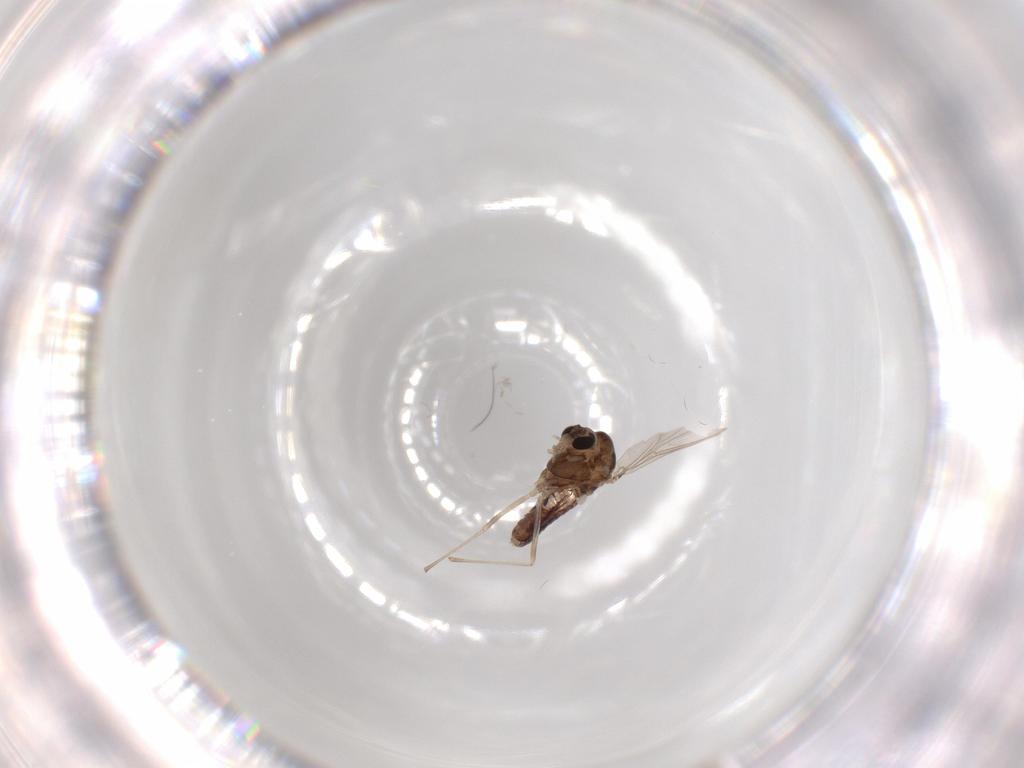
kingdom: Animalia
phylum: Arthropoda
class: Insecta
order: Diptera
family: Chironomidae
